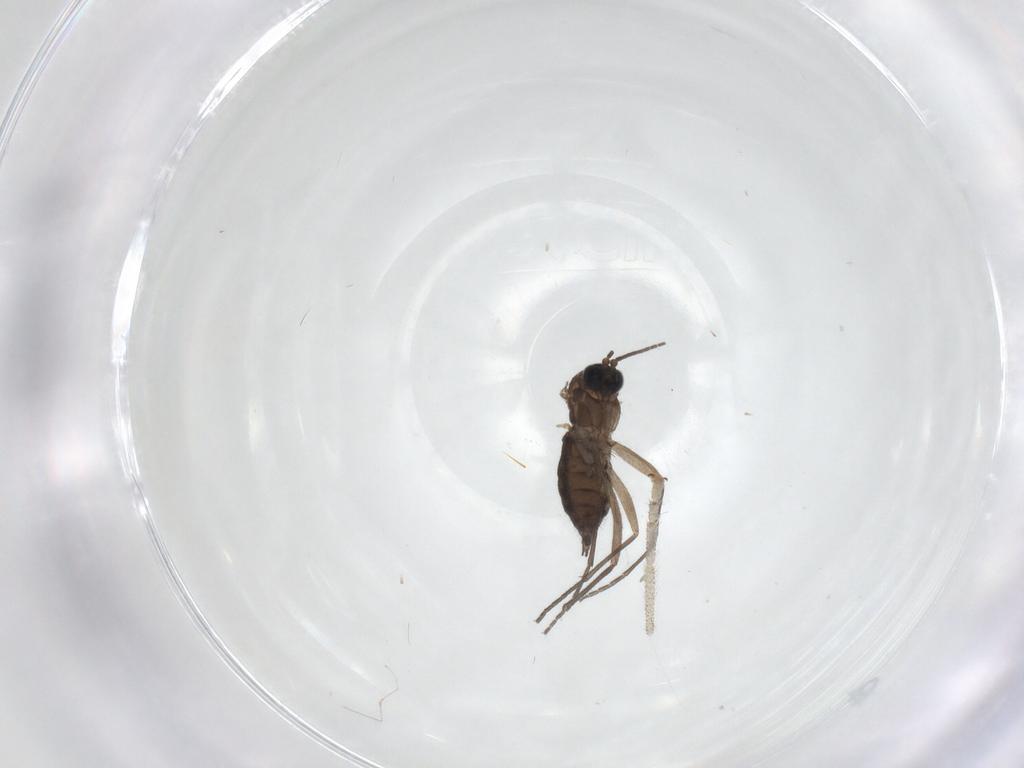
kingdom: Animalia
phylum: Arthropoda
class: Insecta
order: Diptera
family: Sciaridae
